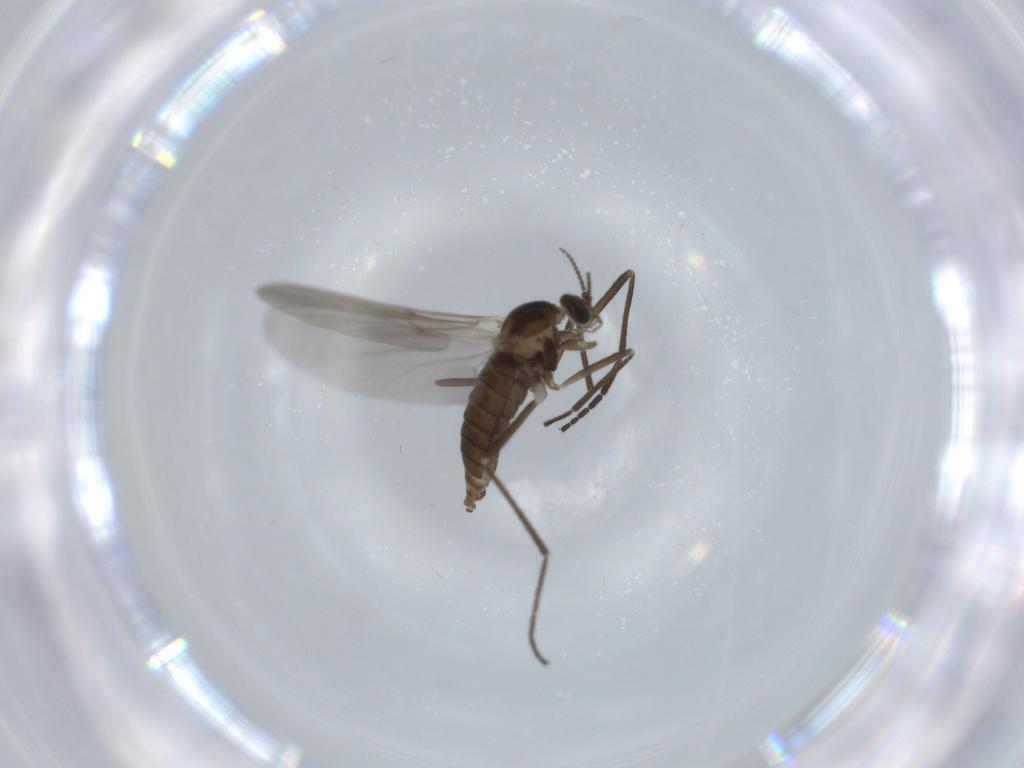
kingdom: Animalia
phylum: Arthropoda
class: Insecta
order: Diptera
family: Cecidomyiidae
